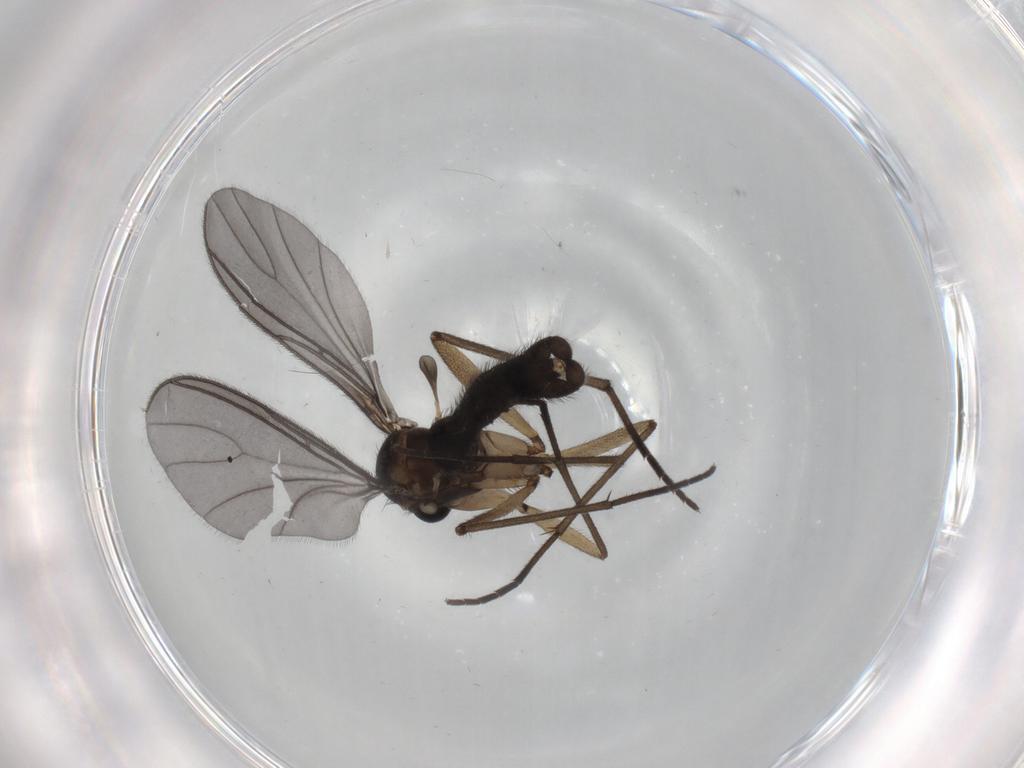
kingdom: Animalia
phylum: Arthropoda
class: Insecta
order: Diptera
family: Sciaridae
